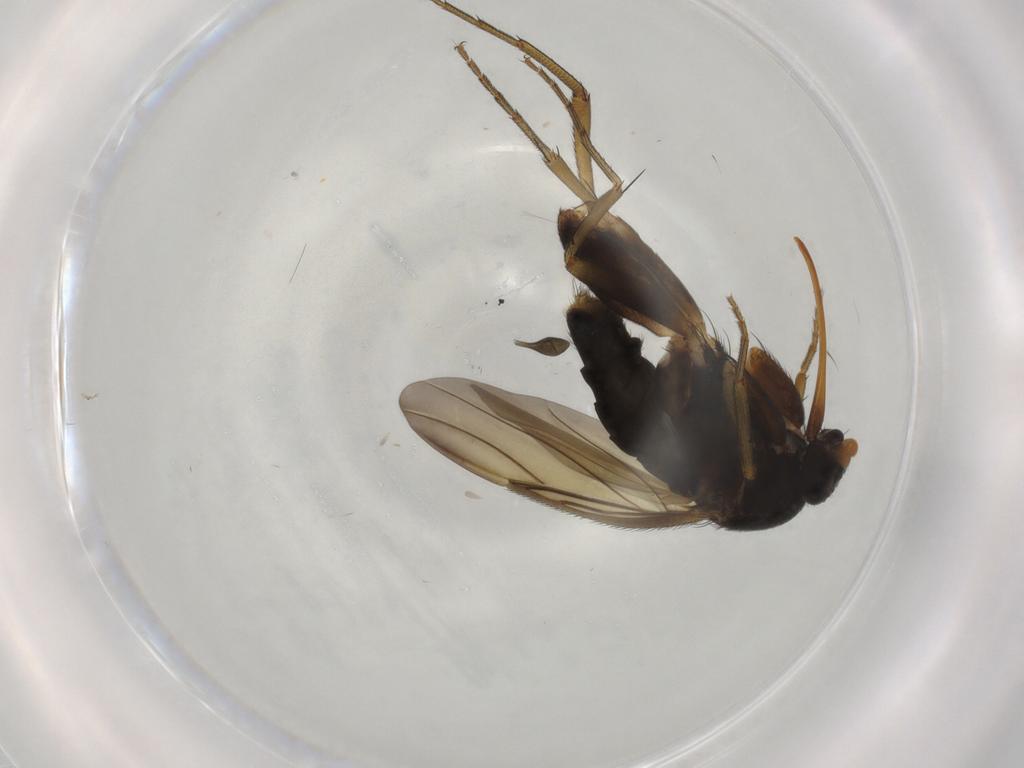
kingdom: Animalia
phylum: Arthropoda
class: Insecta
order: Diptera
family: Phoridae
